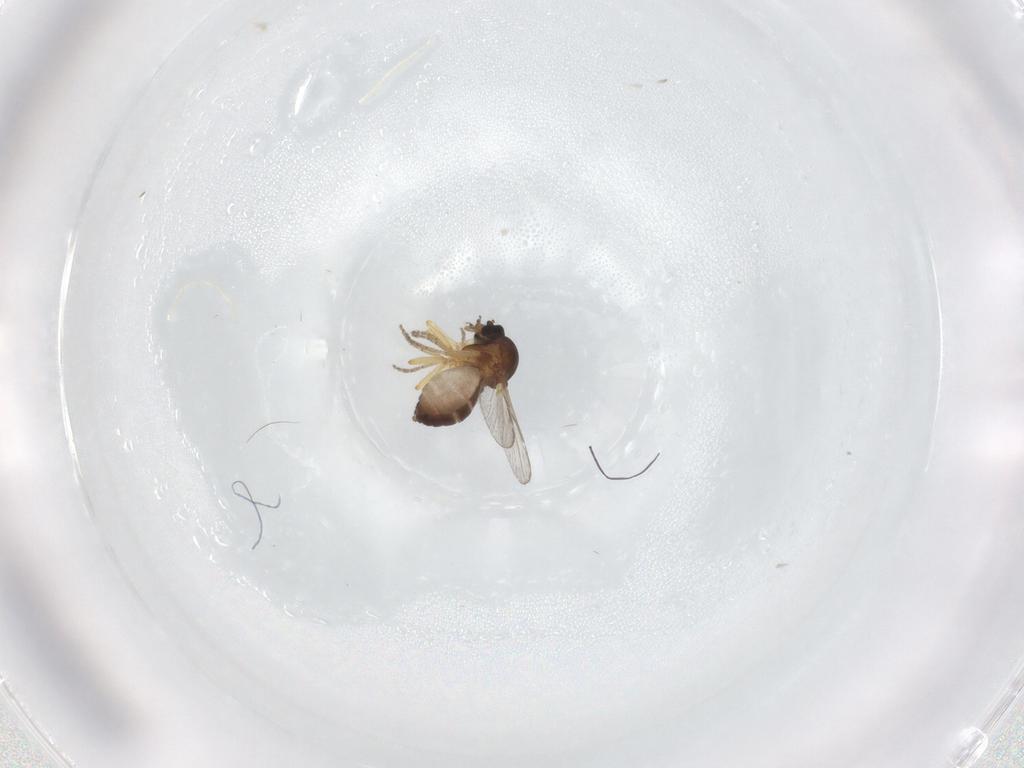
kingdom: Animalia
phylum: Arthropoda
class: Insecta
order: Diptera
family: Ceratopogonidae
